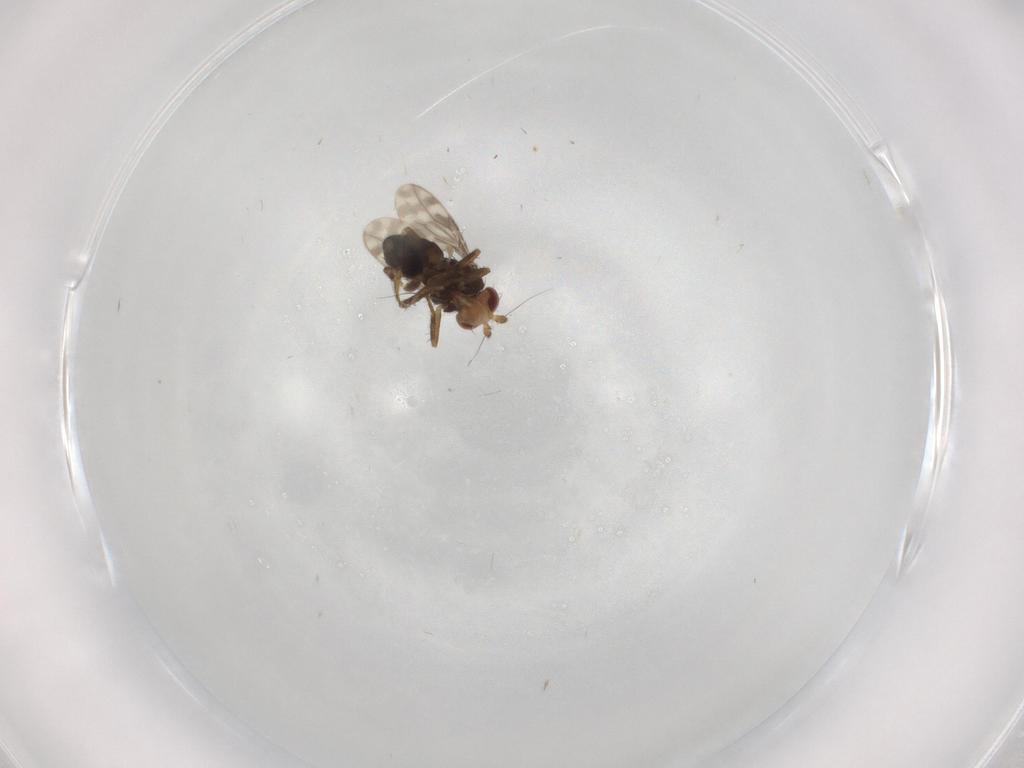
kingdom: Animalia
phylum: Arthropoda
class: Insecta
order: Diptera
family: Sphaeroceridae
